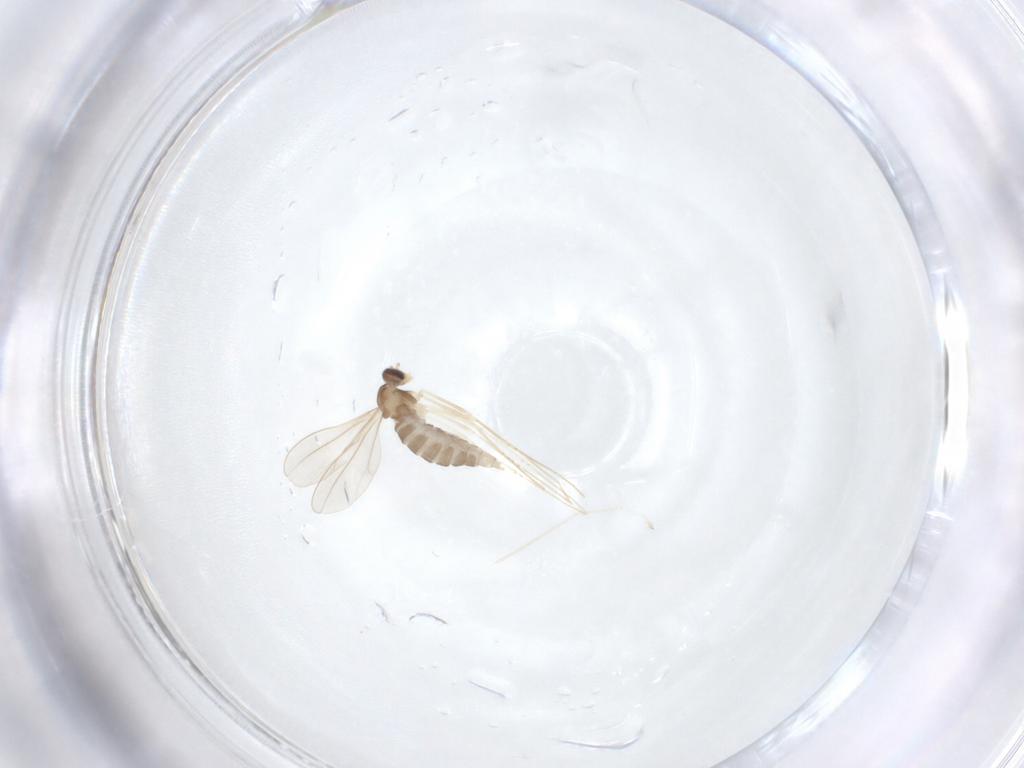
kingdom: Animalia
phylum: Arthropoda
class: Insecta
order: Diptera
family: Cecidomyiidae
